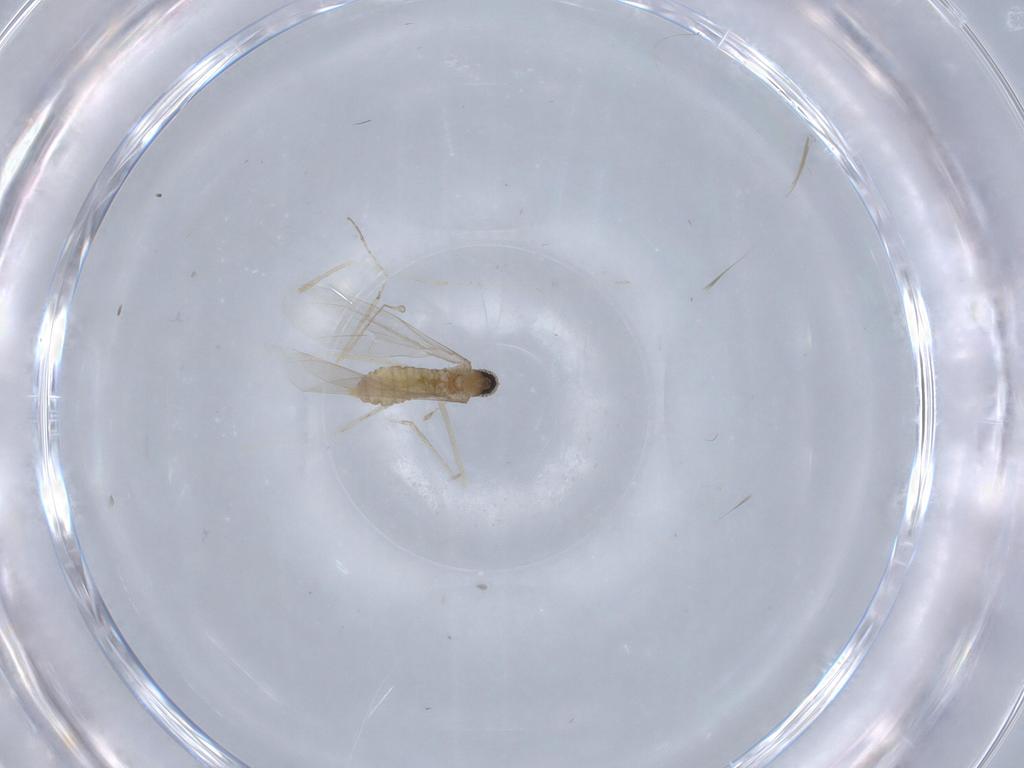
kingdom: Animalia
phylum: Arthropoda
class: Insecta
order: Diptera
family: Cecidomyiidae
